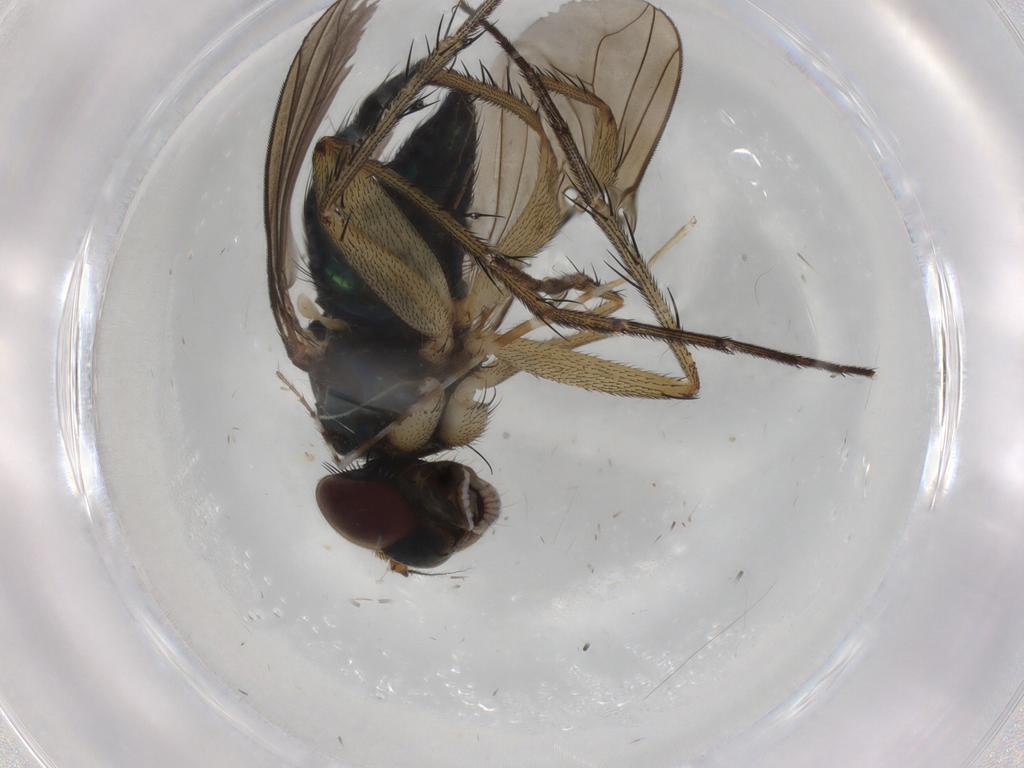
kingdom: Animalia
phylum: Arthropoda
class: Insecta
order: Diptera
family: Dolichopodidae
